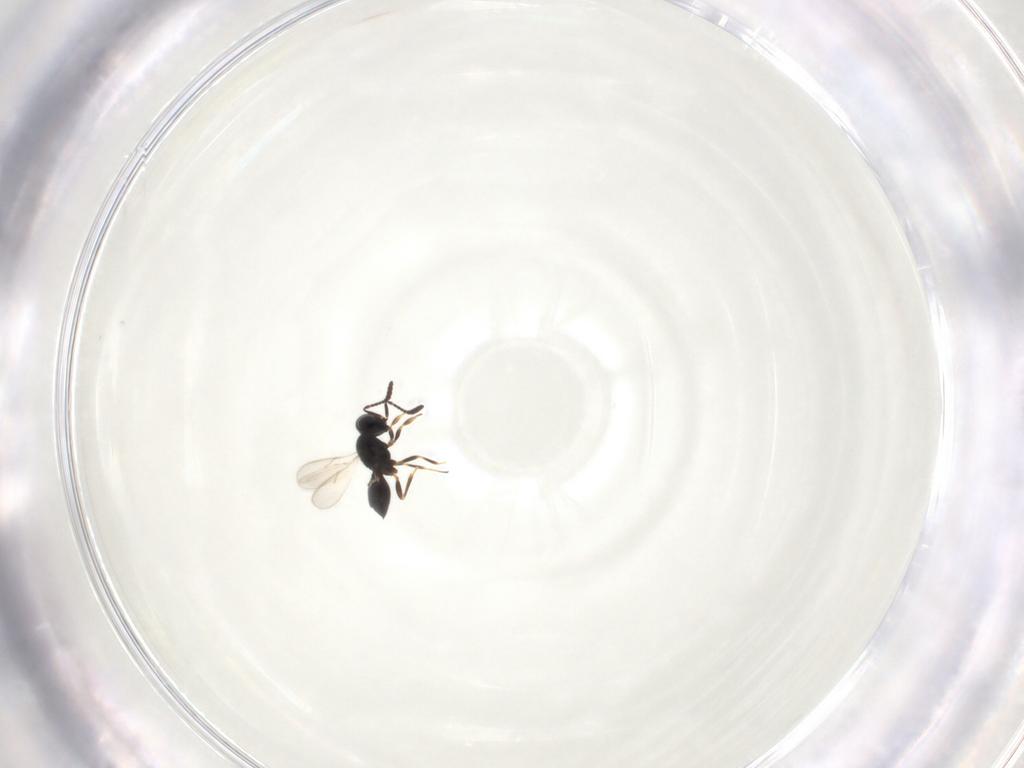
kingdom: Animalia
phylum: Arthropoda
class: Insecta
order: Hymenoptera
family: Scelionidae
